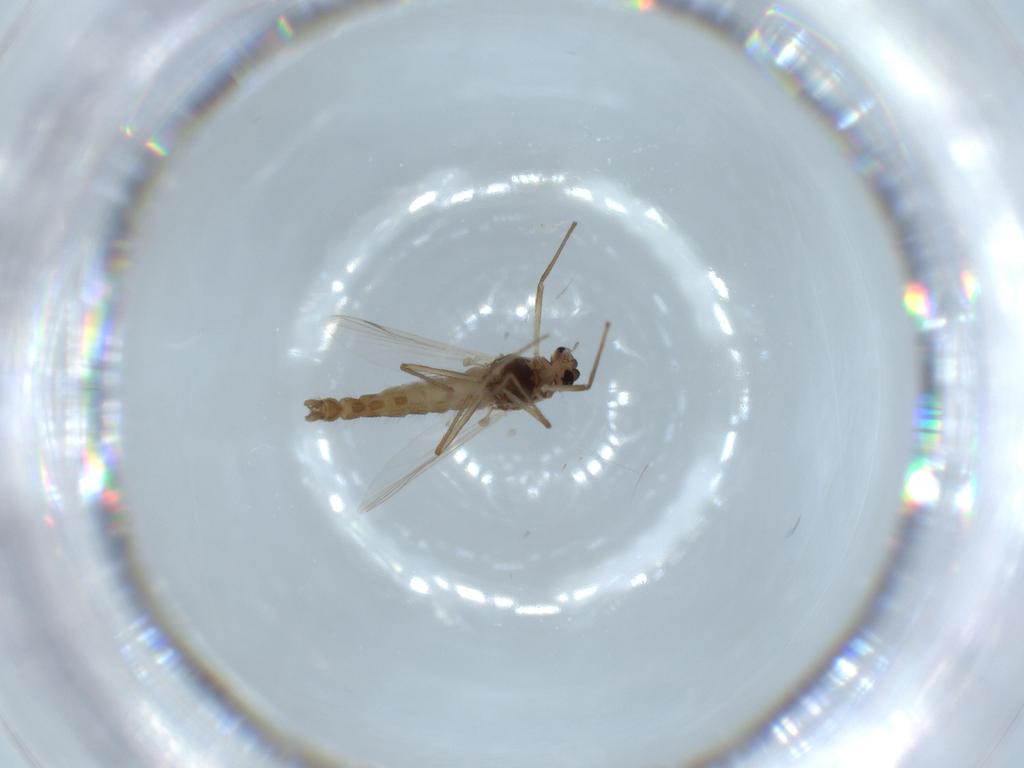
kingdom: Animalia
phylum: Arthropoda
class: Insecta
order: Diptera
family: Chironomidae
